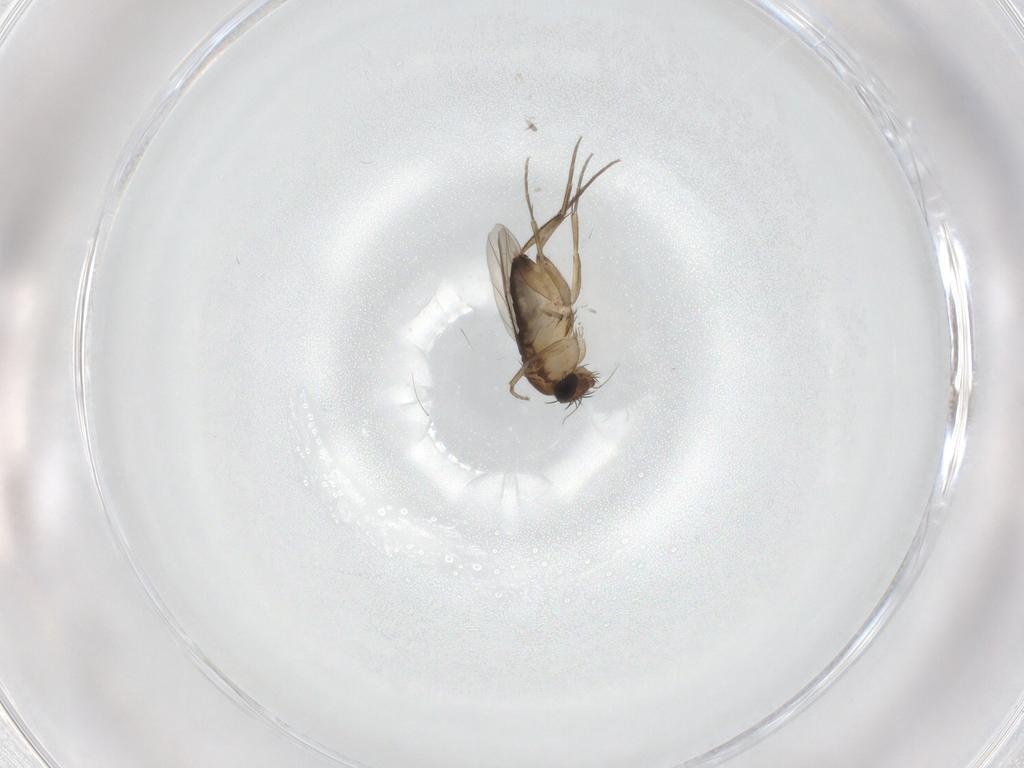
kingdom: Animalia
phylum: Arthropoda
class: Insecta
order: Diptera
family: Phoridae
